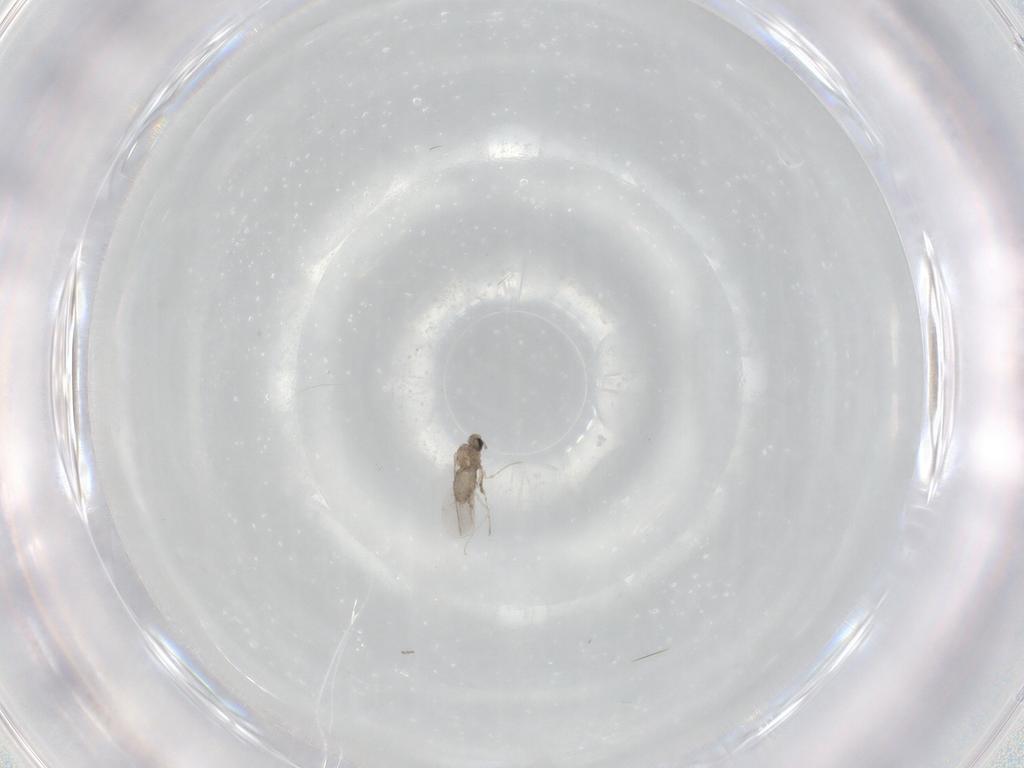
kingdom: Animalia
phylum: Arthropoda
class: Insecta
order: Diptera
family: Cecidomyiidae
